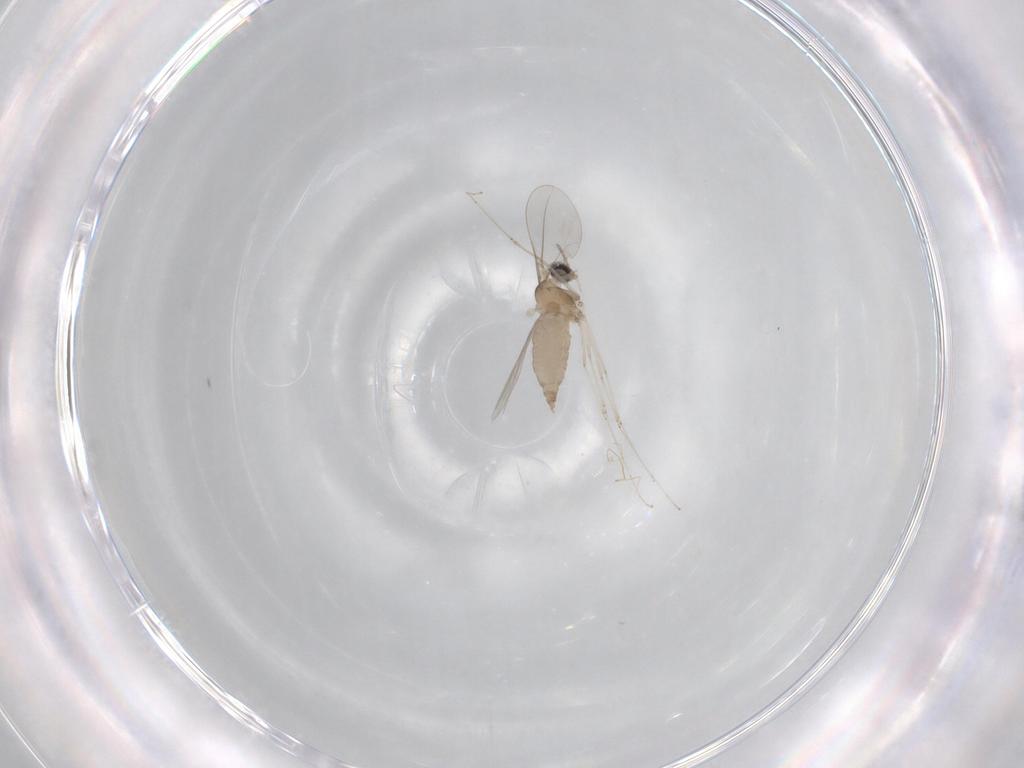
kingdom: Animalia
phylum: Arthropoda
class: Insecta
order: Diptera
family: Cecidomyiidae
